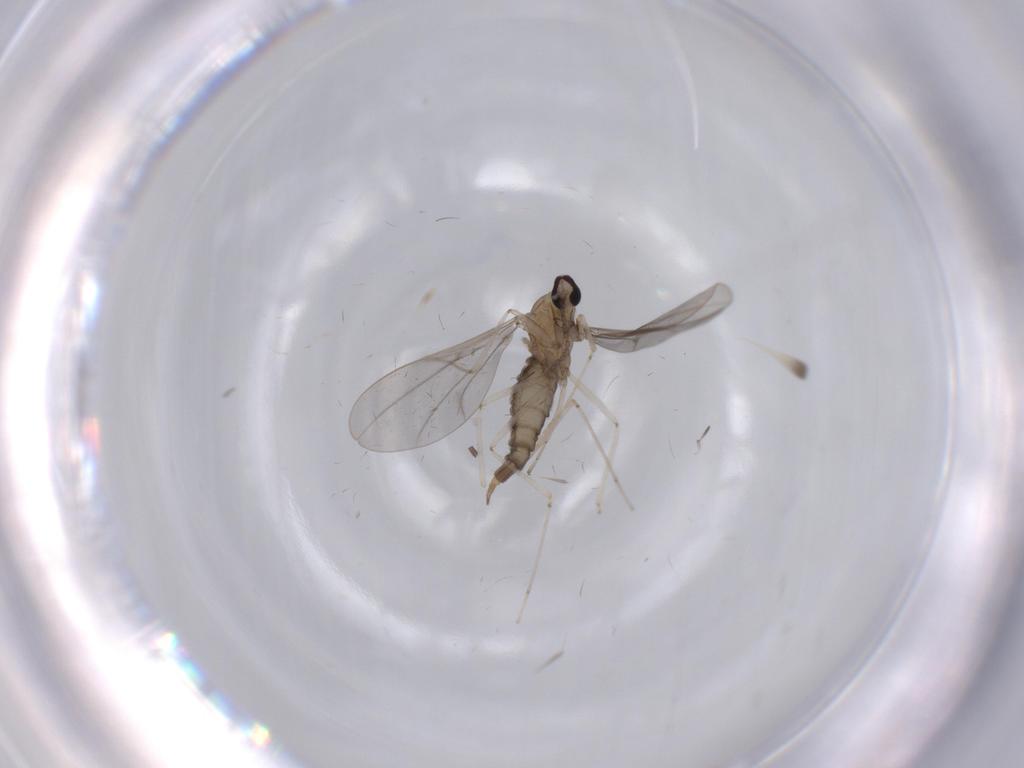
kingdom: Animalia
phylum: Arthropoda
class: Insecta
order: Diptera
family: Cecidomyiidae
